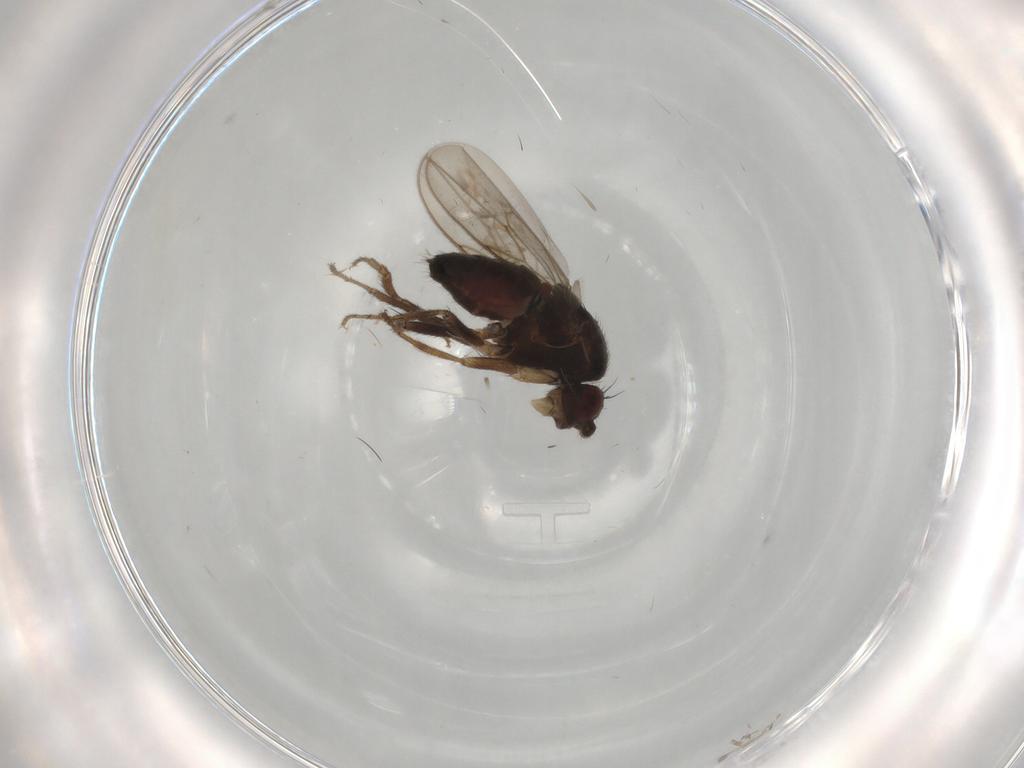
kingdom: Animalia
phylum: Arthropoda
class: Insecta
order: Diptera
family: Sphaeroceridae
